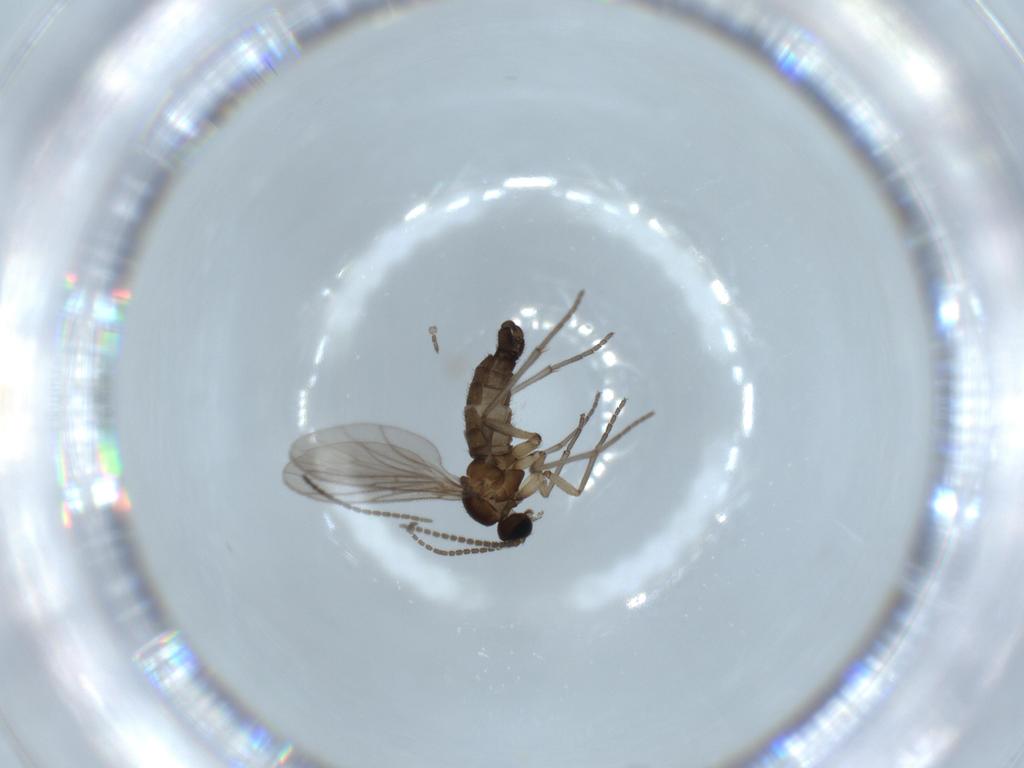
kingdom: Animalia
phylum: Arthropoda
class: Insecta
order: Diptera
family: Sciaridae
